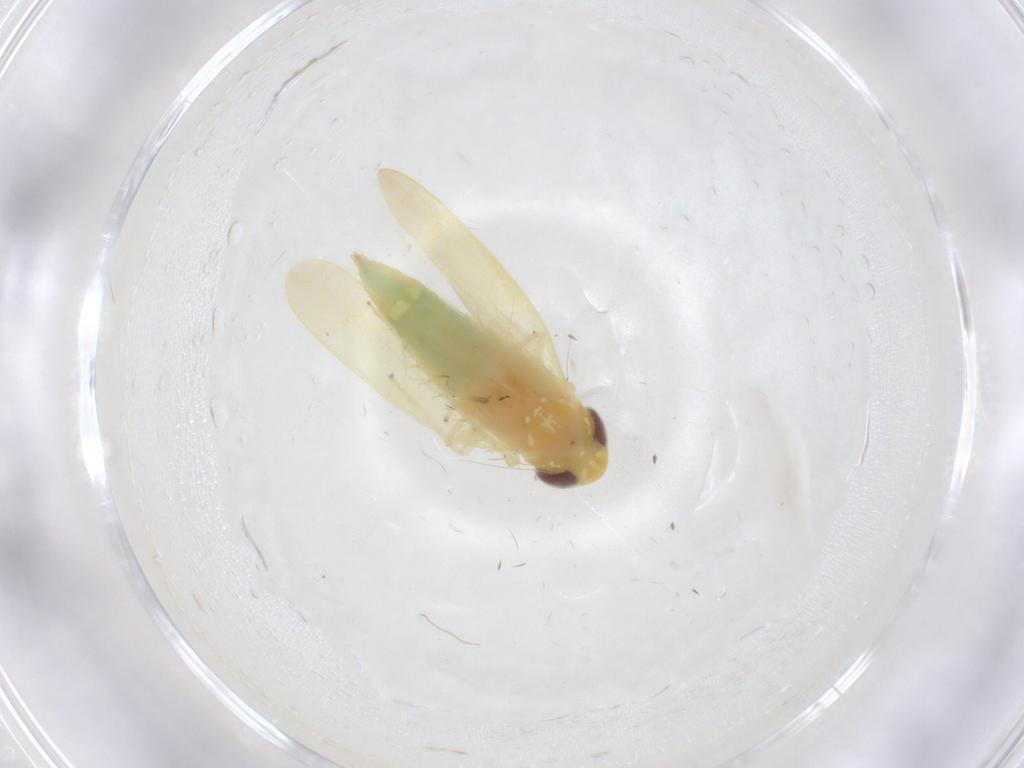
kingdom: Animalia
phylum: Arthropoda
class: Insecta
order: Hemiptera
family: Cicadellidae
